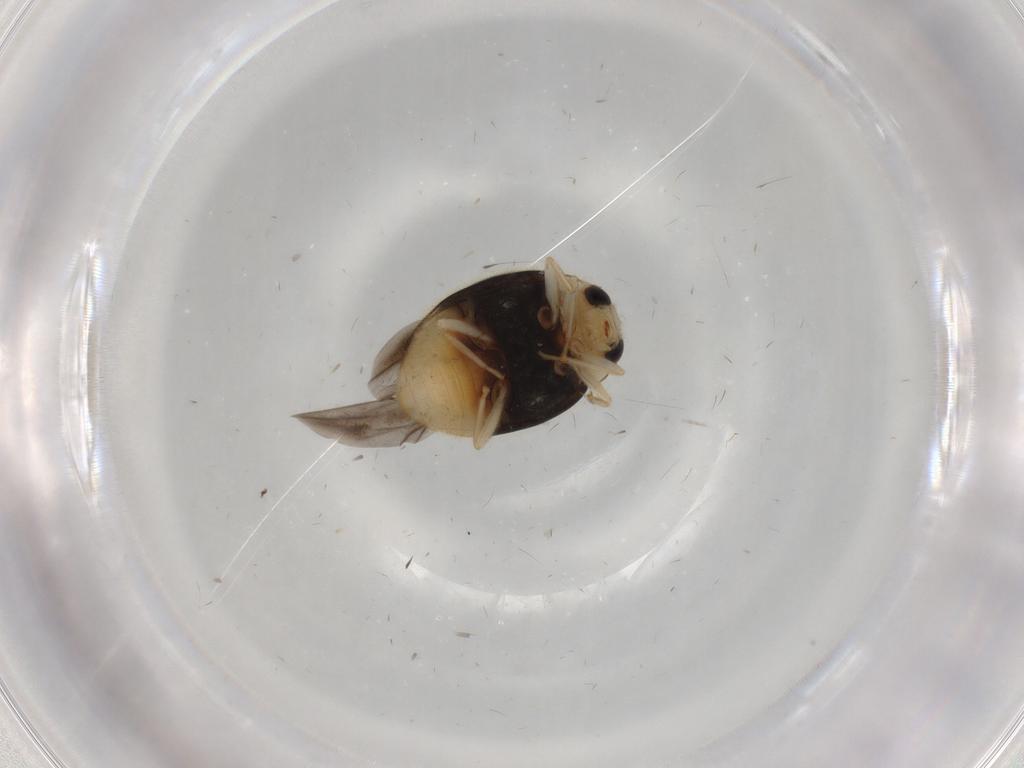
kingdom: Animalia
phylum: Arthropoda
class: Insecta
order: Coleoptera
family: Coccinellidae
